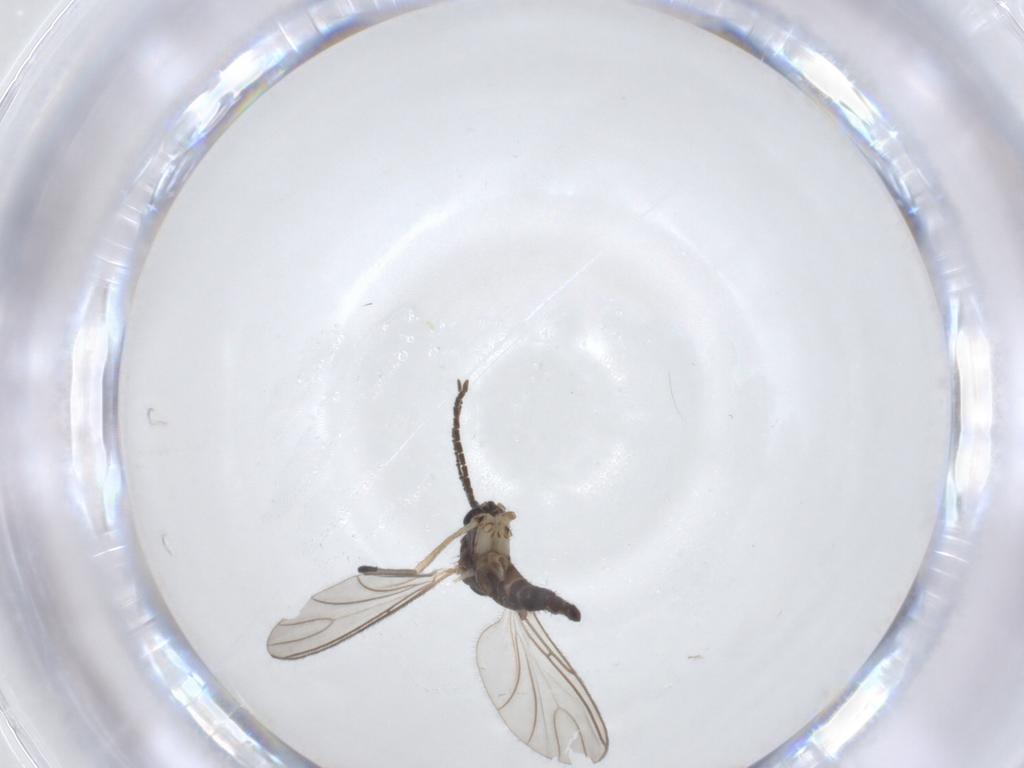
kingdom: Animalia
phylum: Arthropoda
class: Insecta
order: Diptera
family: Sciaridae
